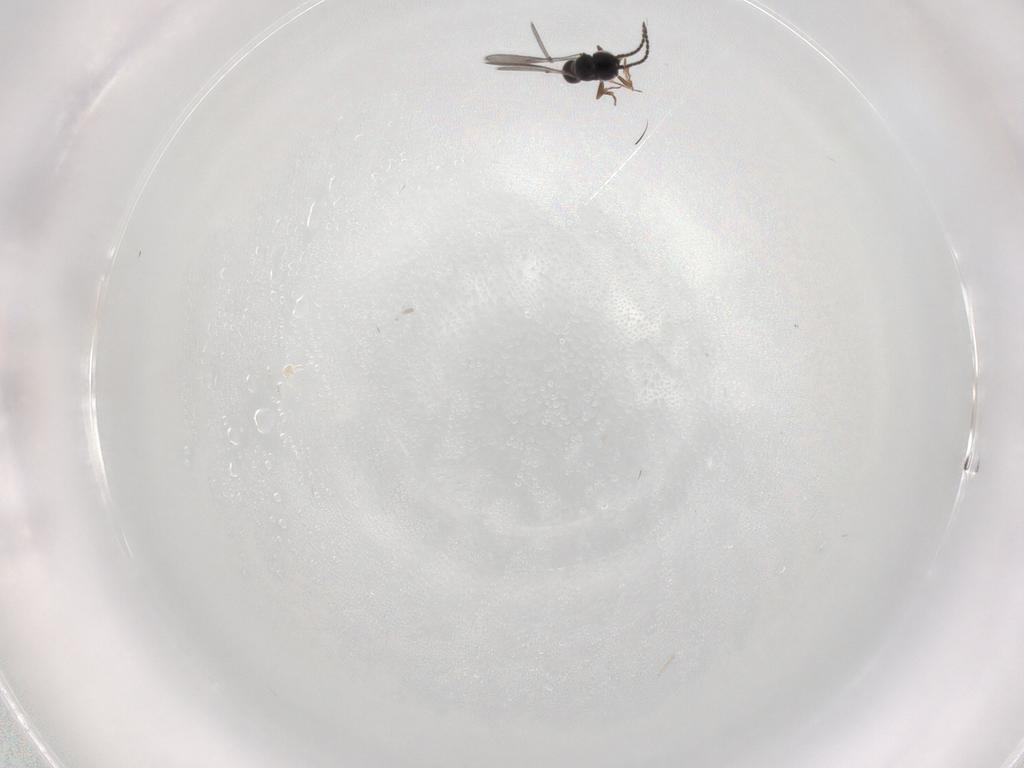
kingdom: Animalia
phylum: Arthropoda
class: Insecta
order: Hymenoptera
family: Scelionidae
